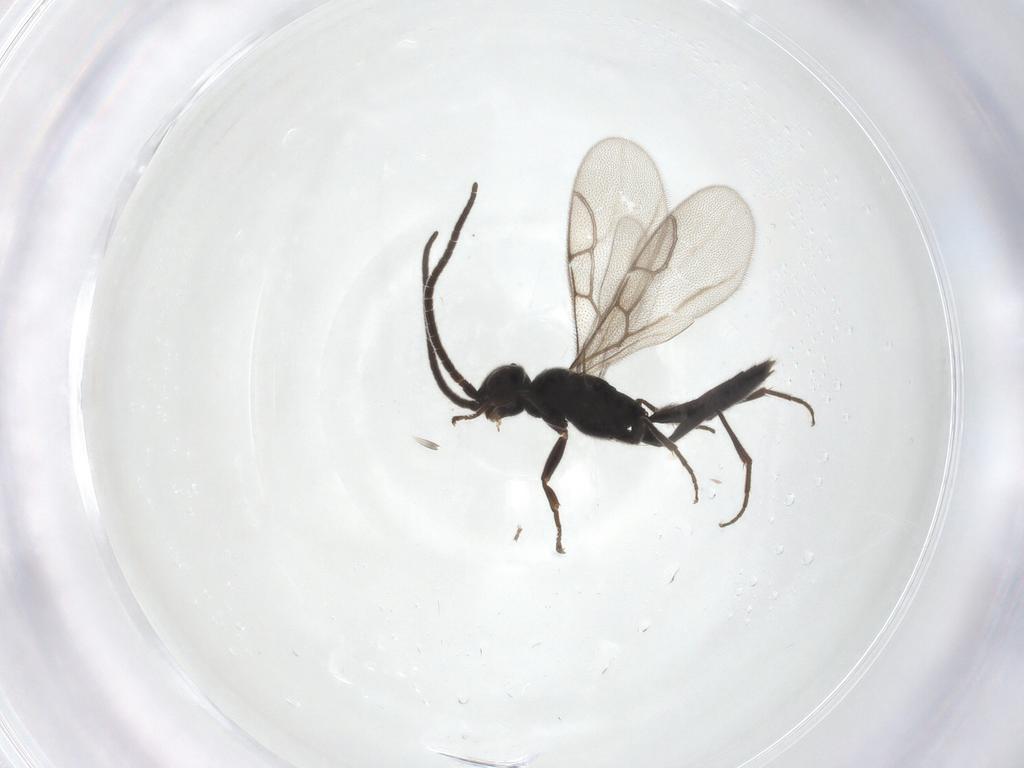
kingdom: Animalia
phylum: Arthropoda
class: Insecta
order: Hymenoptera
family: Sclerogibbidae
